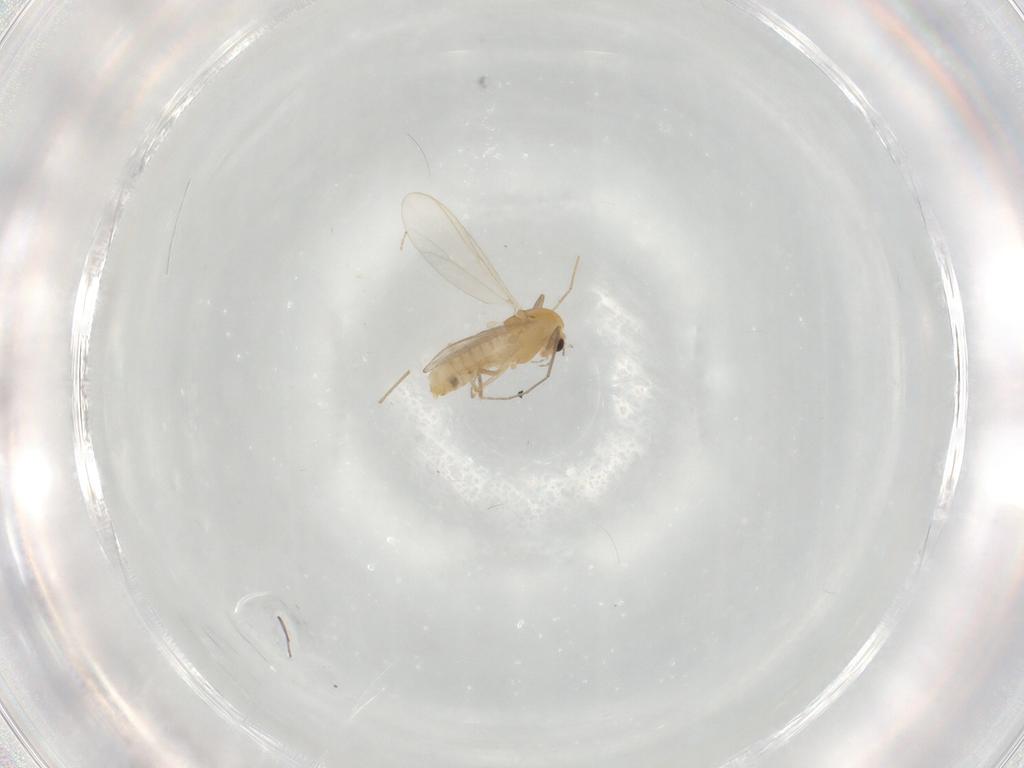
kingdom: Animalia
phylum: Arthropoda
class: Insecta
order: Diptera
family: Chironomidae
